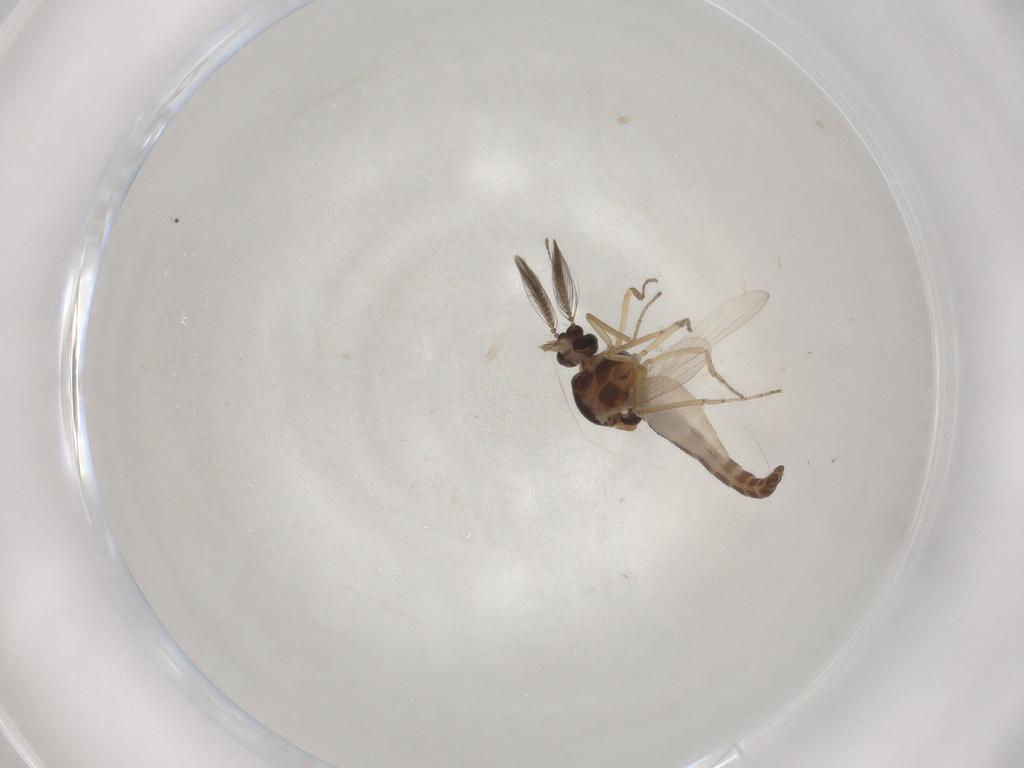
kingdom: Animalia
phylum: Arthropoda
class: Insecta
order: Diptera
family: Ceratopogonidae
